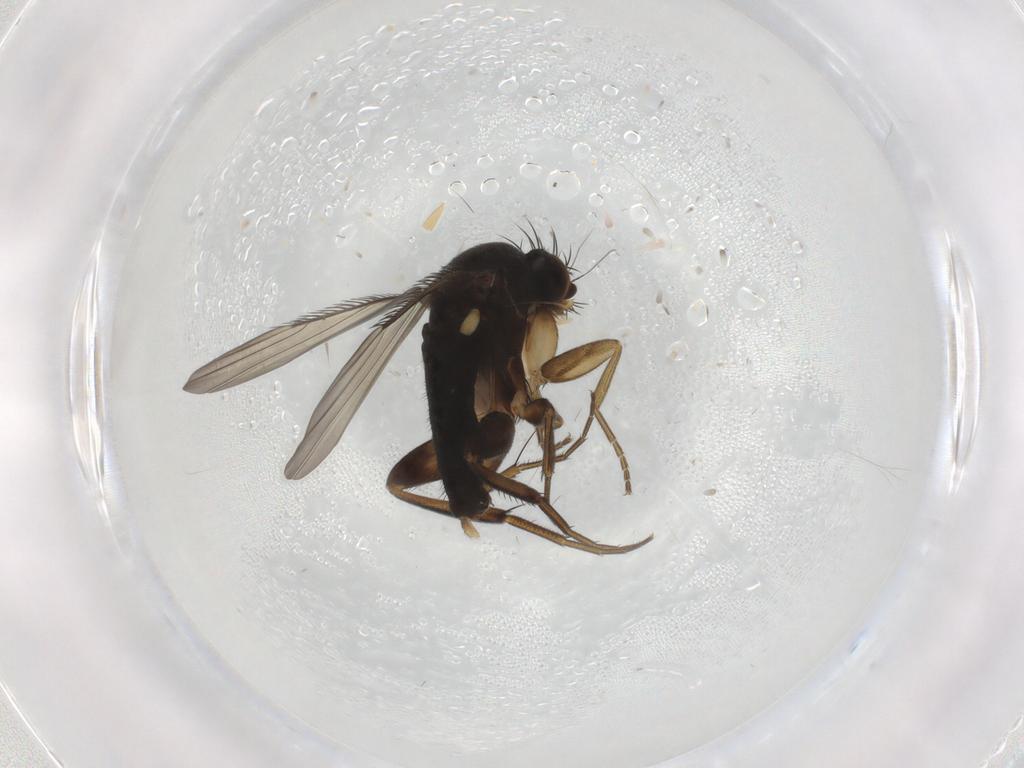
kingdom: Animalia
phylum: Arthropoda
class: Insecta
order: Diptera
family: Phoridae
